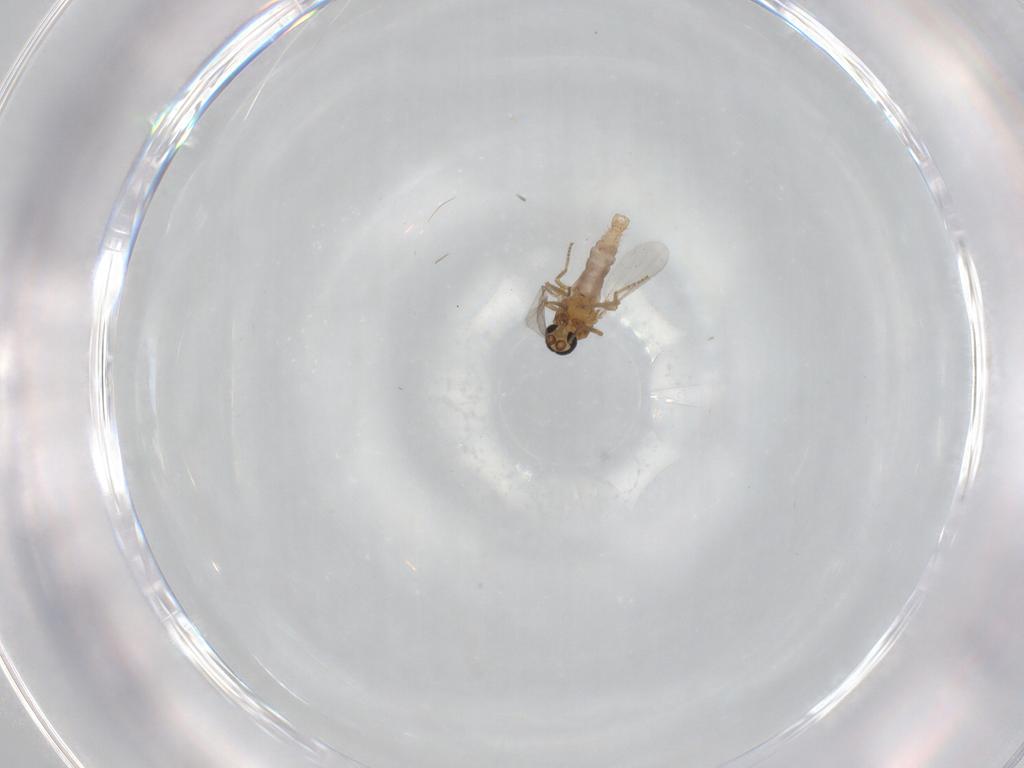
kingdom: Animalia
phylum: Arthropoda
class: Insecta
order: Diptera
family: Ceratopogonidae
